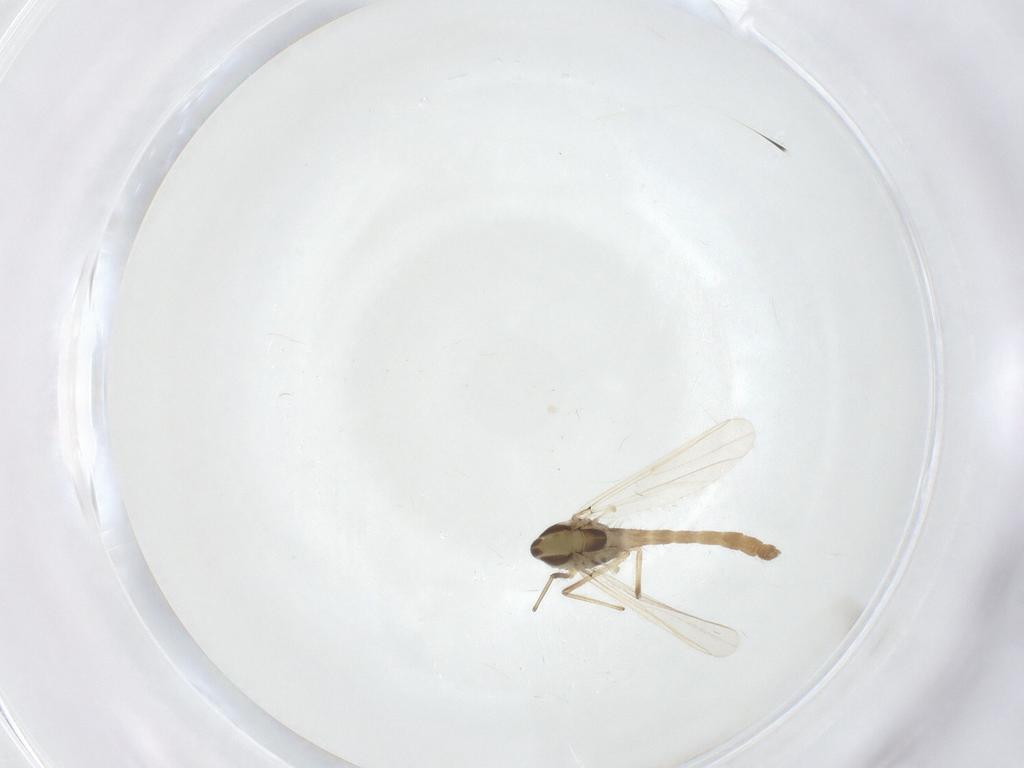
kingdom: Animalia
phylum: Arthropoda
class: Insecta
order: Diptera
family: Chironomidae
